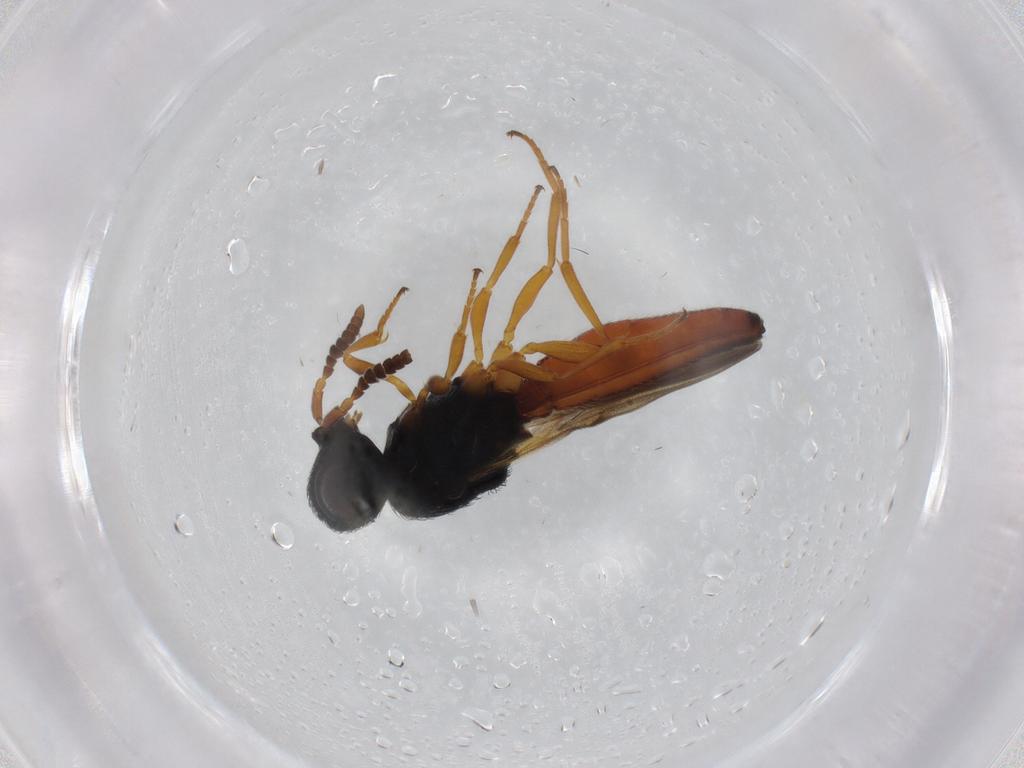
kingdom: Animalia
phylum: Arthropoda
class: Insecta
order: Hymenoptera
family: Scelionidae
